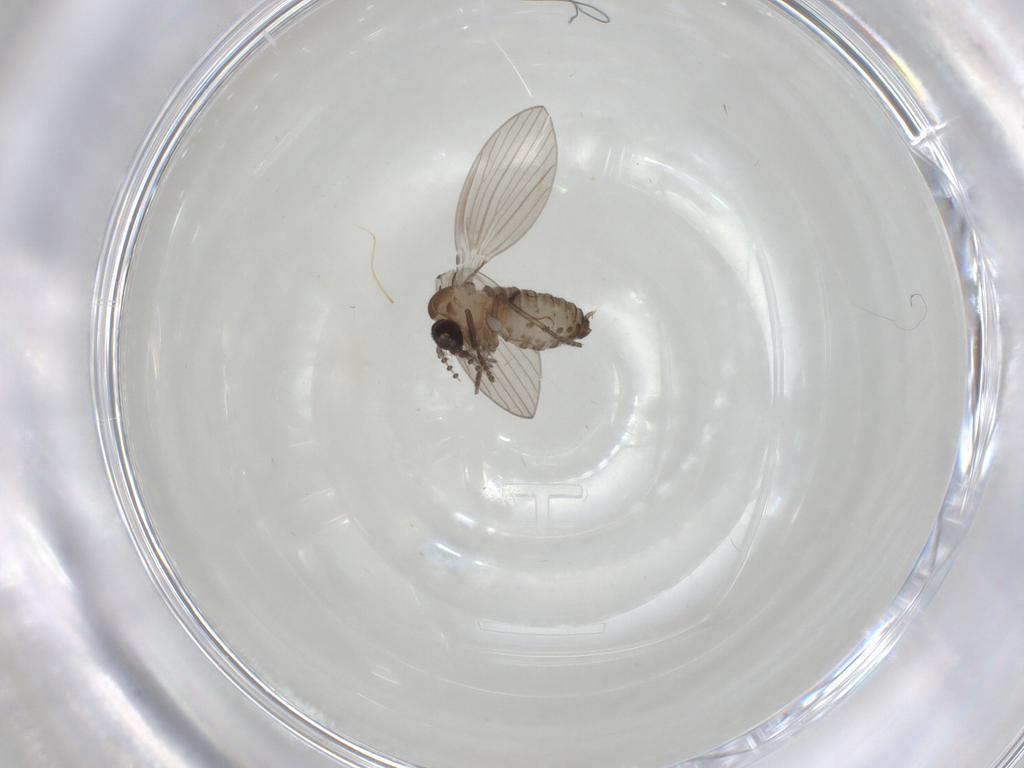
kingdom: Animalia
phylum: Arthropoda
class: Insecta
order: Diptera
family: Psychodidae
